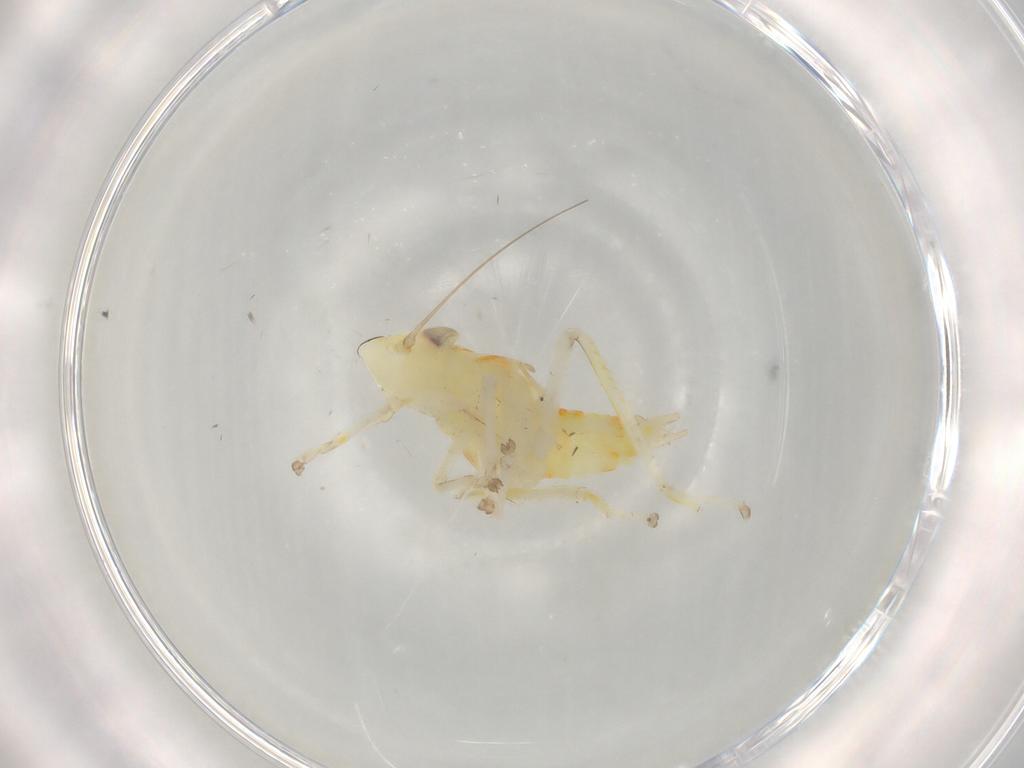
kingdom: Animalia
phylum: Arthropoda
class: Insecta
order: Hemiptera
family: Cicadellidae
